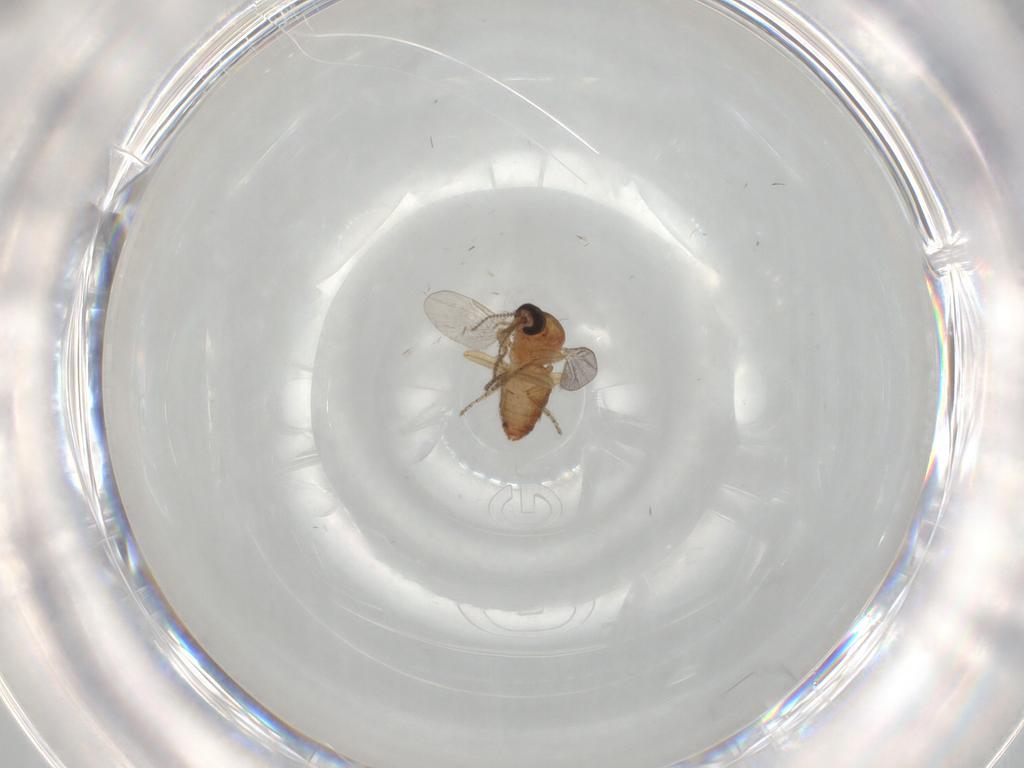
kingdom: Animalia
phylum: Arthropoda
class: Insecta
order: Diptera
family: Ceratopogonidae
